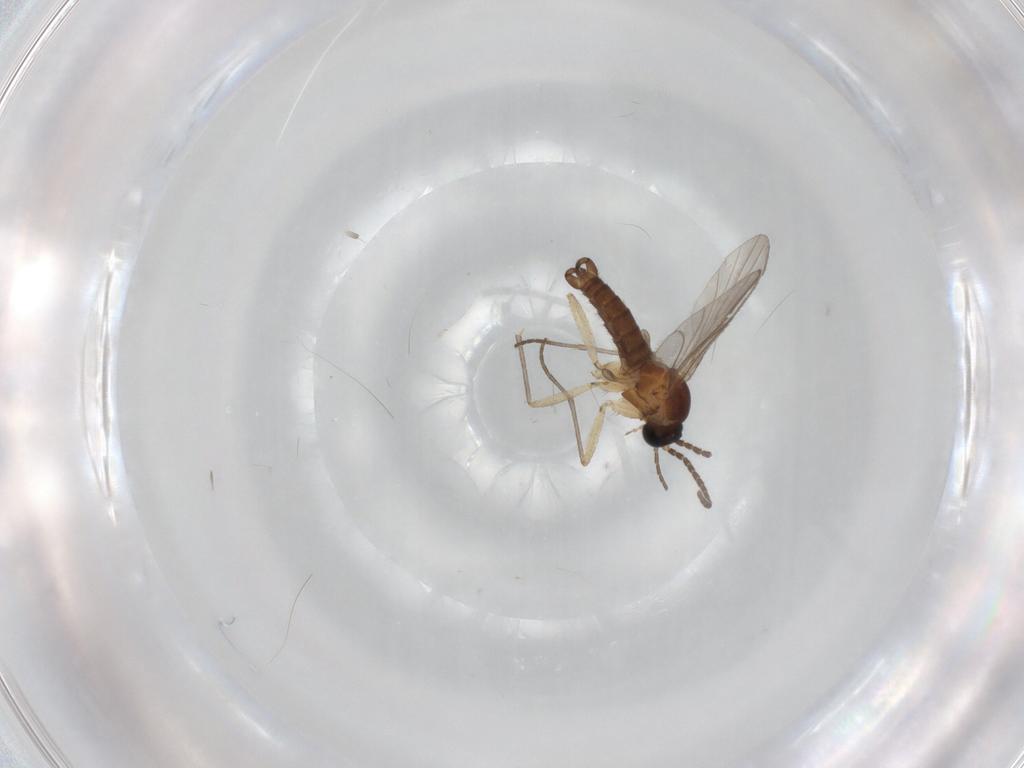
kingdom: Animalia
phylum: Arthropoda
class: Insecta
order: Diptera
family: Sciaridae
